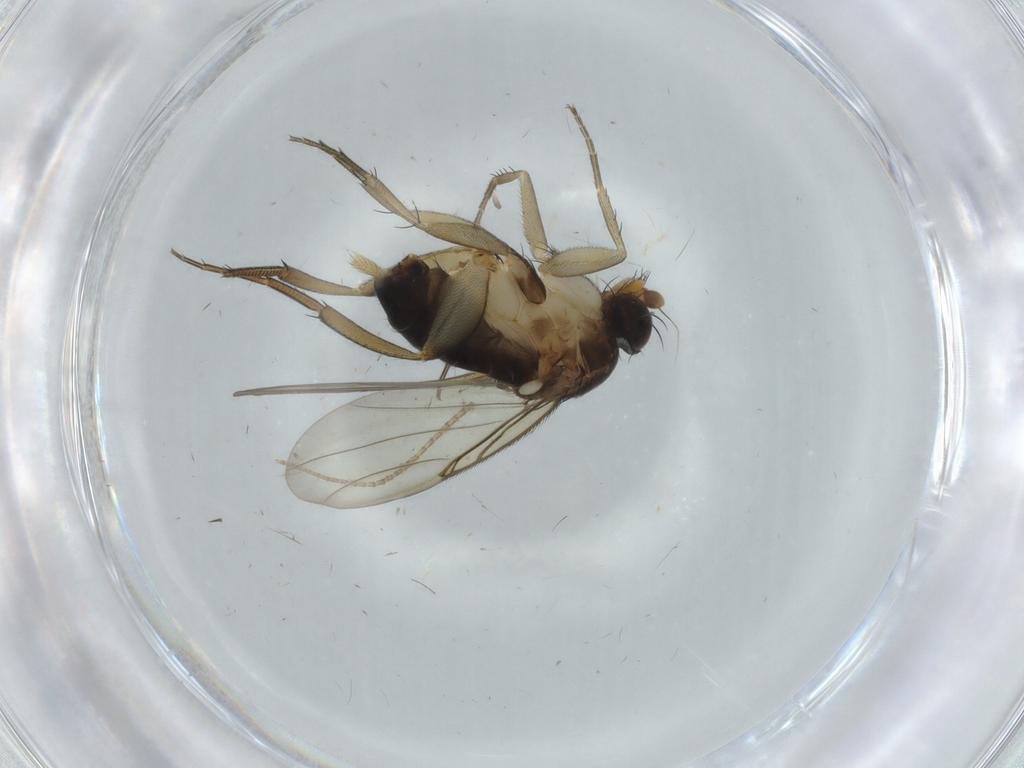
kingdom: Animalia
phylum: Arthropoda
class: Insecta
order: Diptera
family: Phoridae
